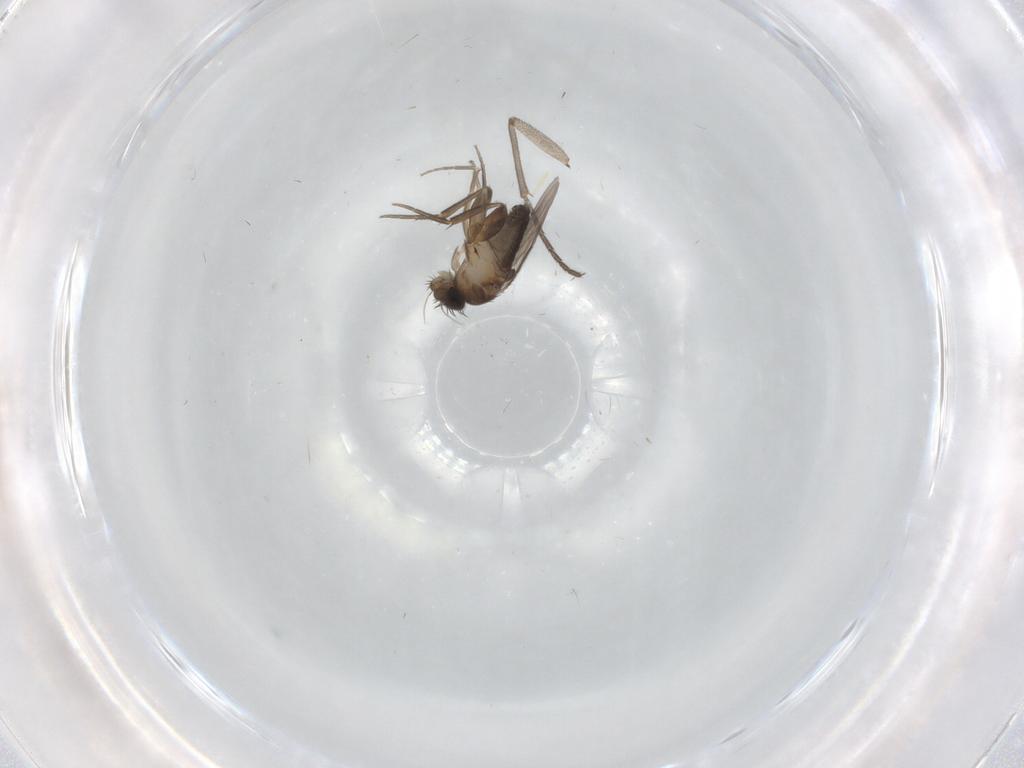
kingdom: Animalia
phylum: Arthropoda
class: Insecta
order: Diptera
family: Phoridae
